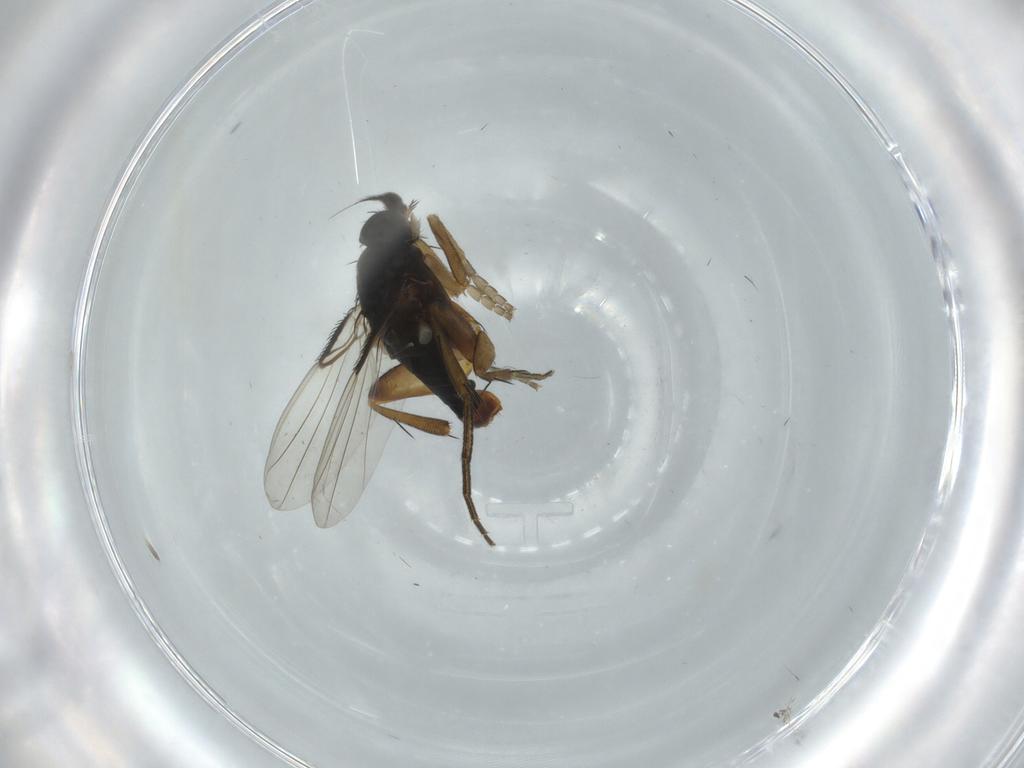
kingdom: Animalia
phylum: Arthropoda
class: Insecta
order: Diptera
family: Phoridae
